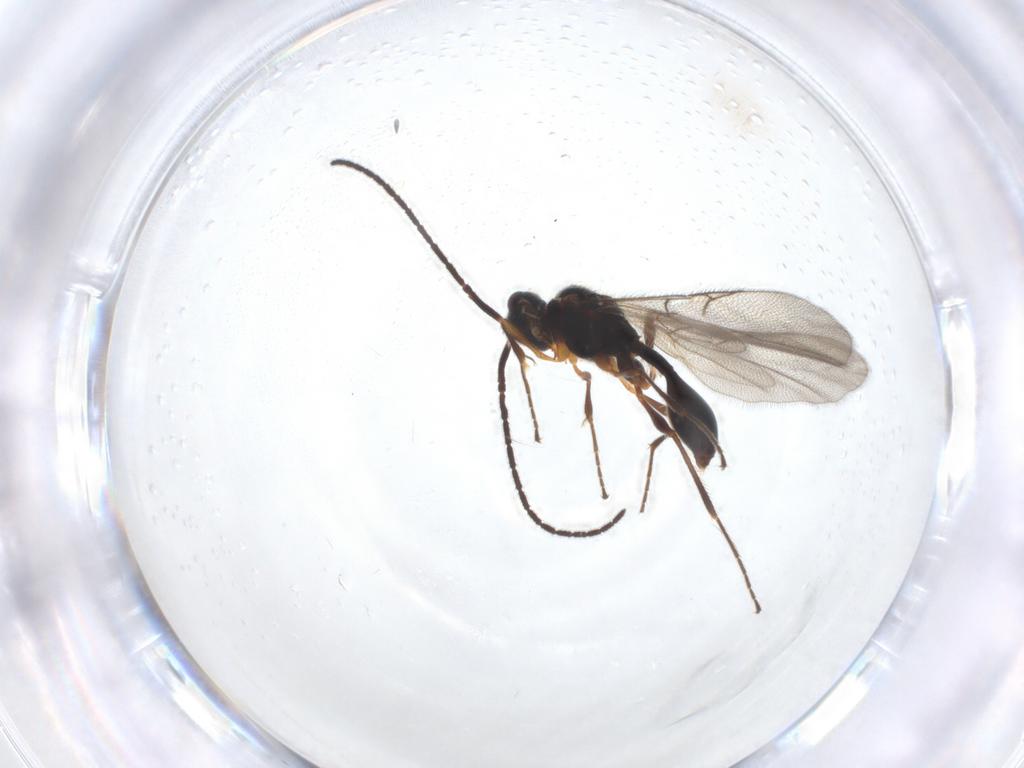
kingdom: Animalia
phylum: Arthropoda
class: Insecta
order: Hymenoptera
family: Diapriidae
